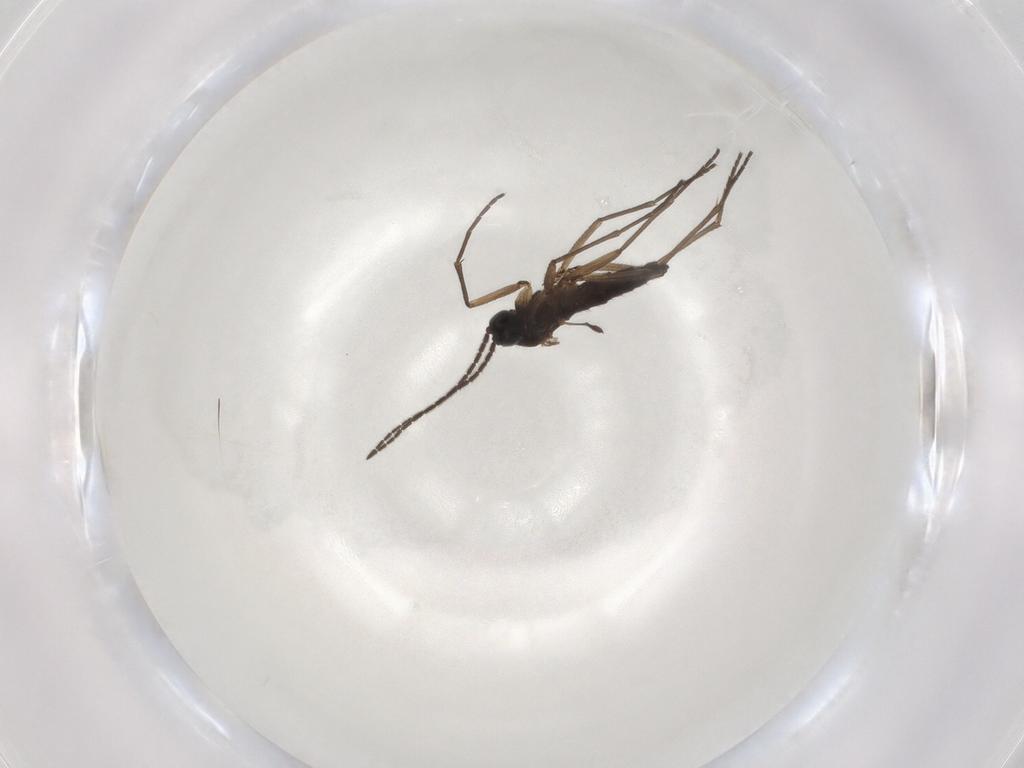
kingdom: Animalia
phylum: Arthropoda
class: Insecta
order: Diptera
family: Sciaridae
